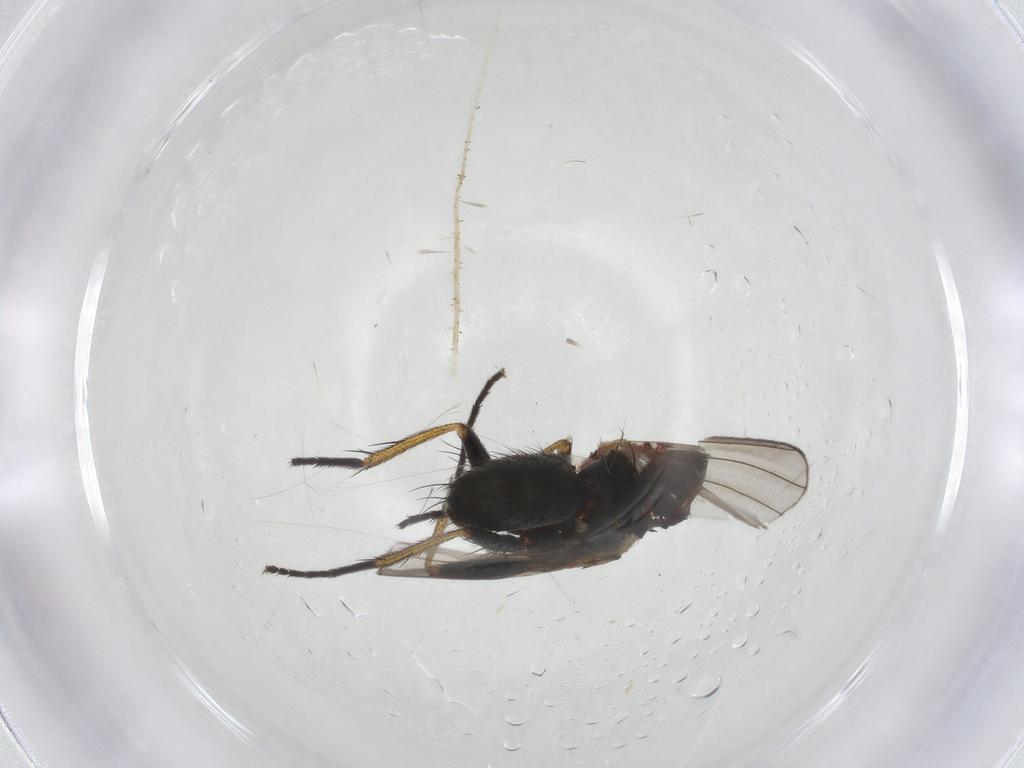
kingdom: Animalia
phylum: Arthropoda
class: Insecta
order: Diptera
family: Muscidae
